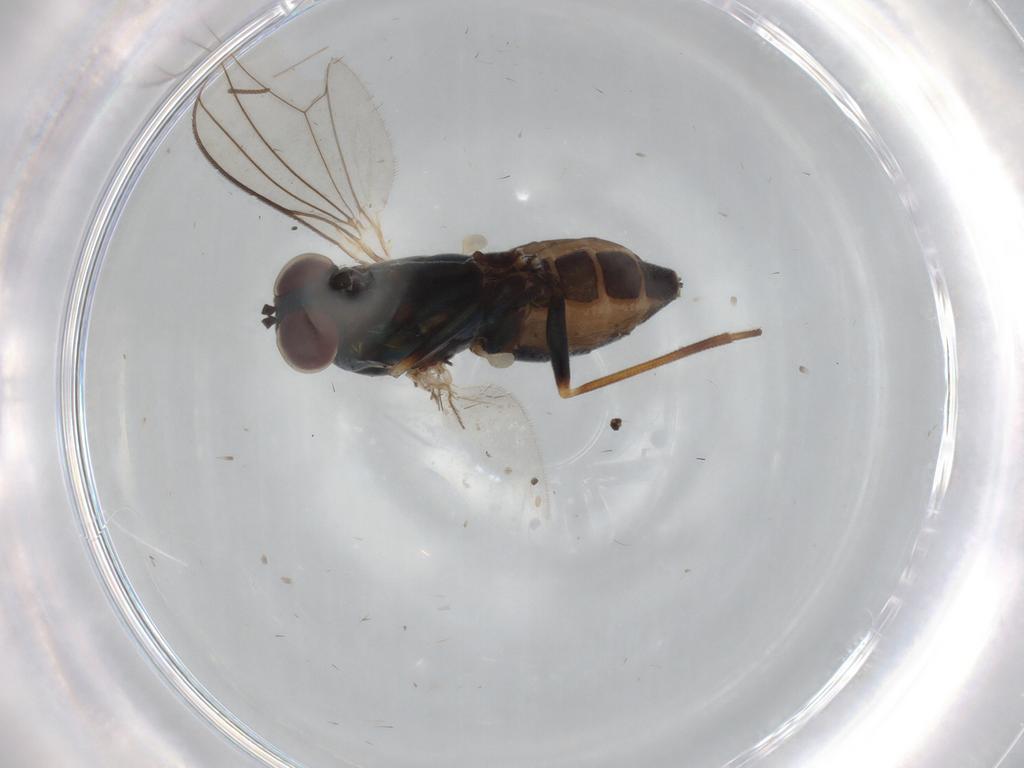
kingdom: Animalia
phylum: Arthropoda
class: Insecta
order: Diptera
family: Dolichopodidae
